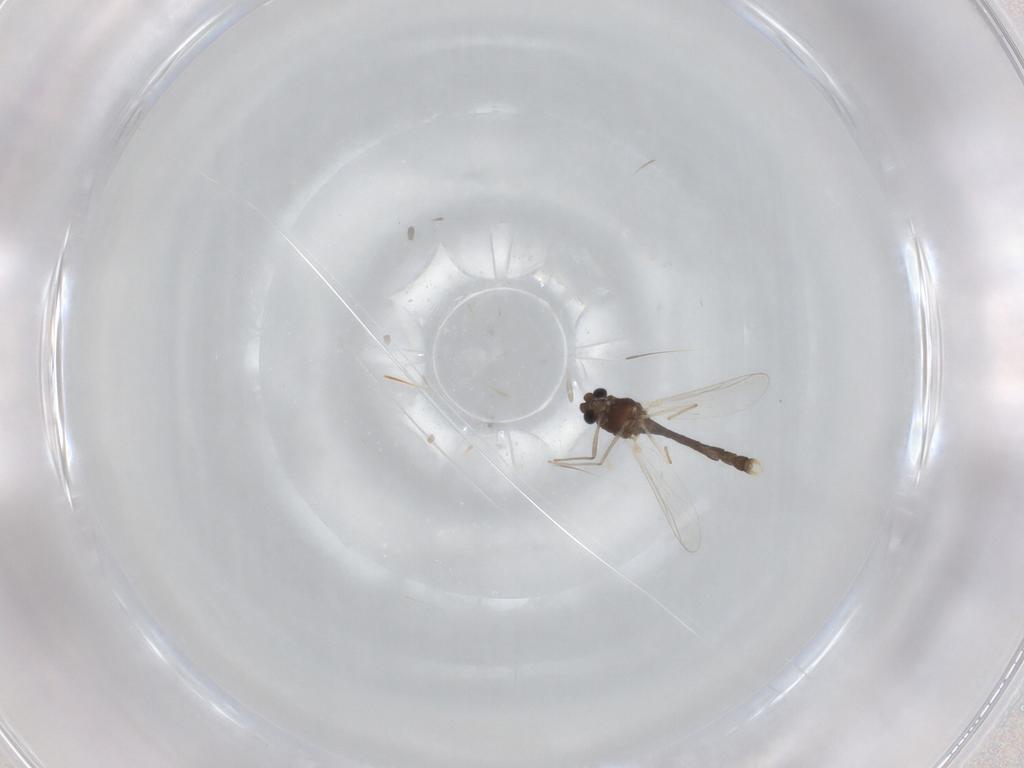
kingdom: Animalia
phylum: Arthropoda
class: Insecta
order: Diptera
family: Chironomidae
